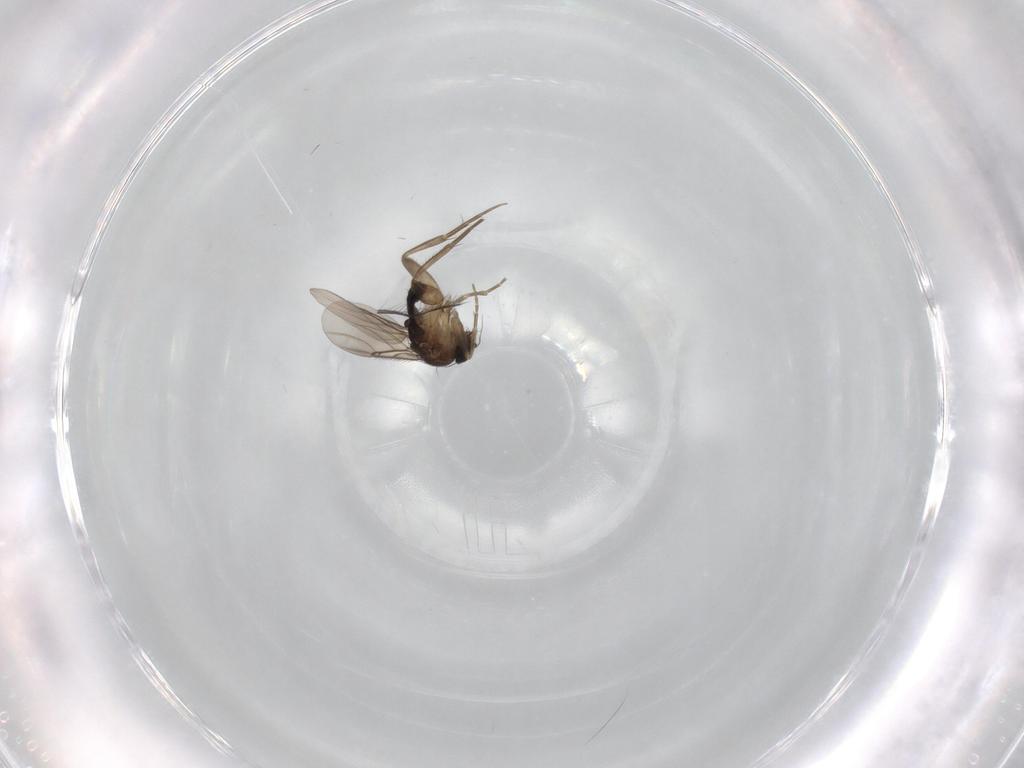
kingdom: Animalia
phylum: Arthropoda
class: Insecta
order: Diptera
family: Phoridae
